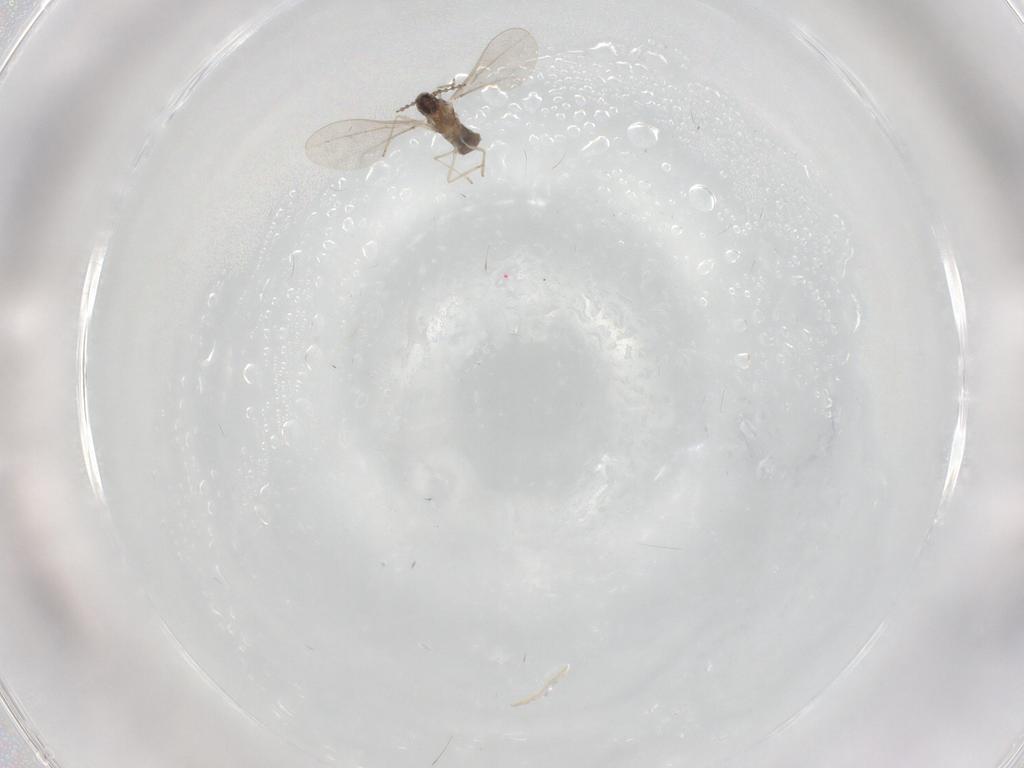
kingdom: Animalia
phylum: Arthropoda
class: Insecta
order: Diptera
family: Cecidomyiidae
